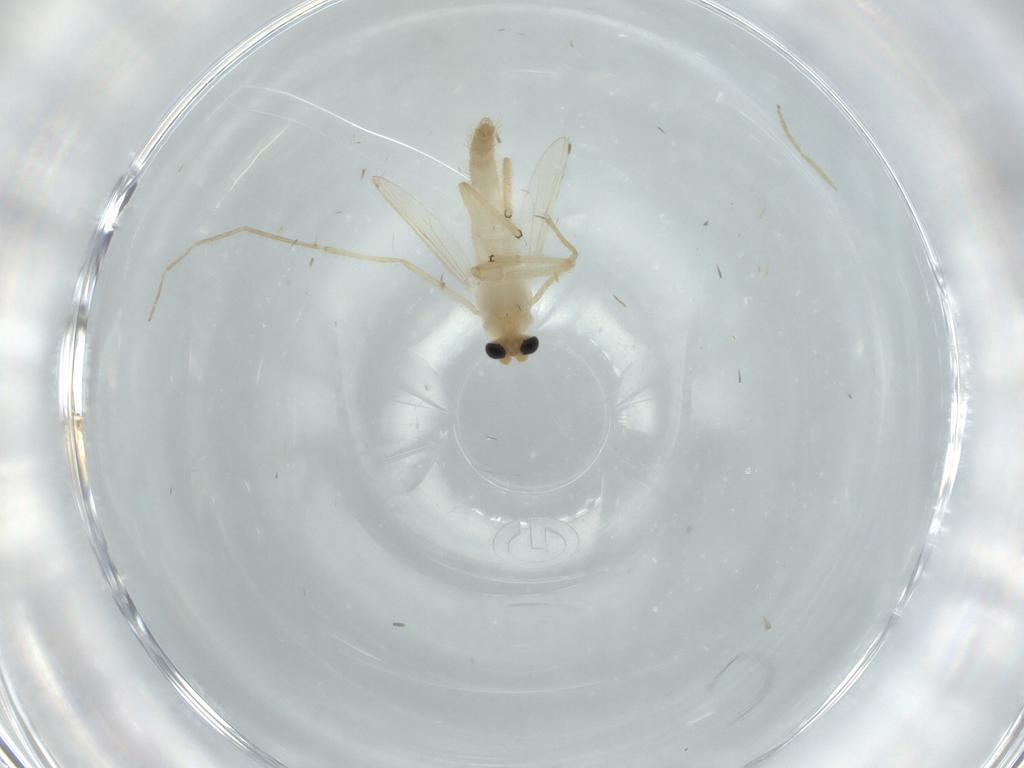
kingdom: Animalia
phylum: Arthropoda
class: Insecta
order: Diptera
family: Chironomidae
